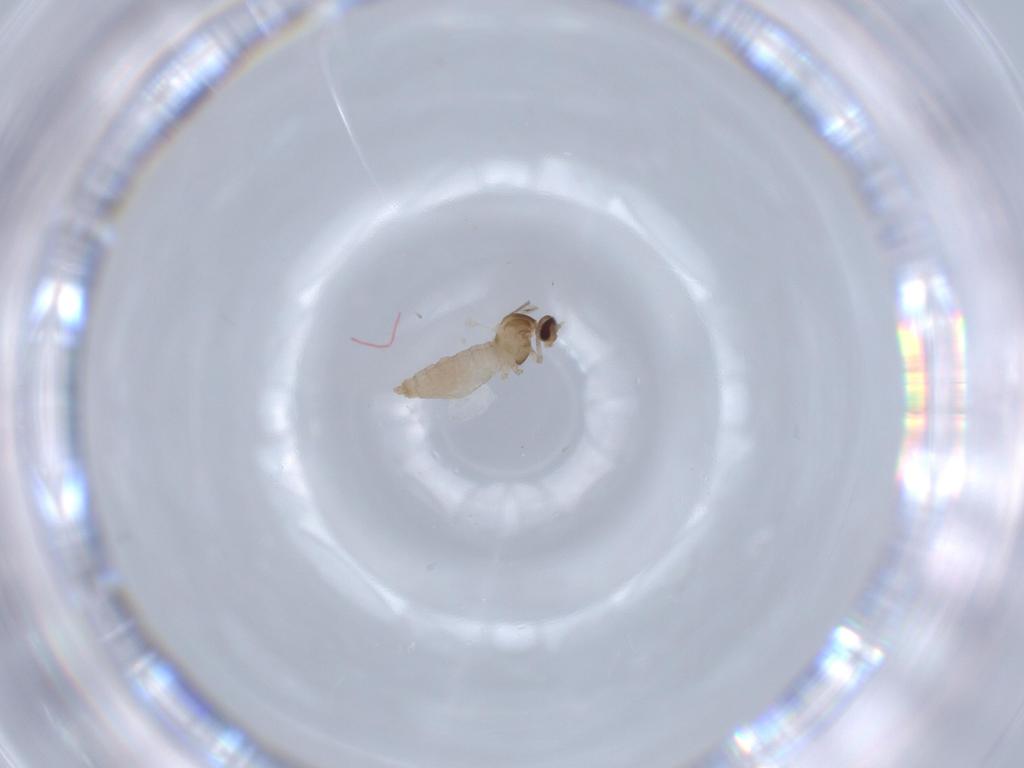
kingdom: Animalia
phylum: Arthropoda
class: Insecta
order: Diptera
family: Cecidomyiidae
